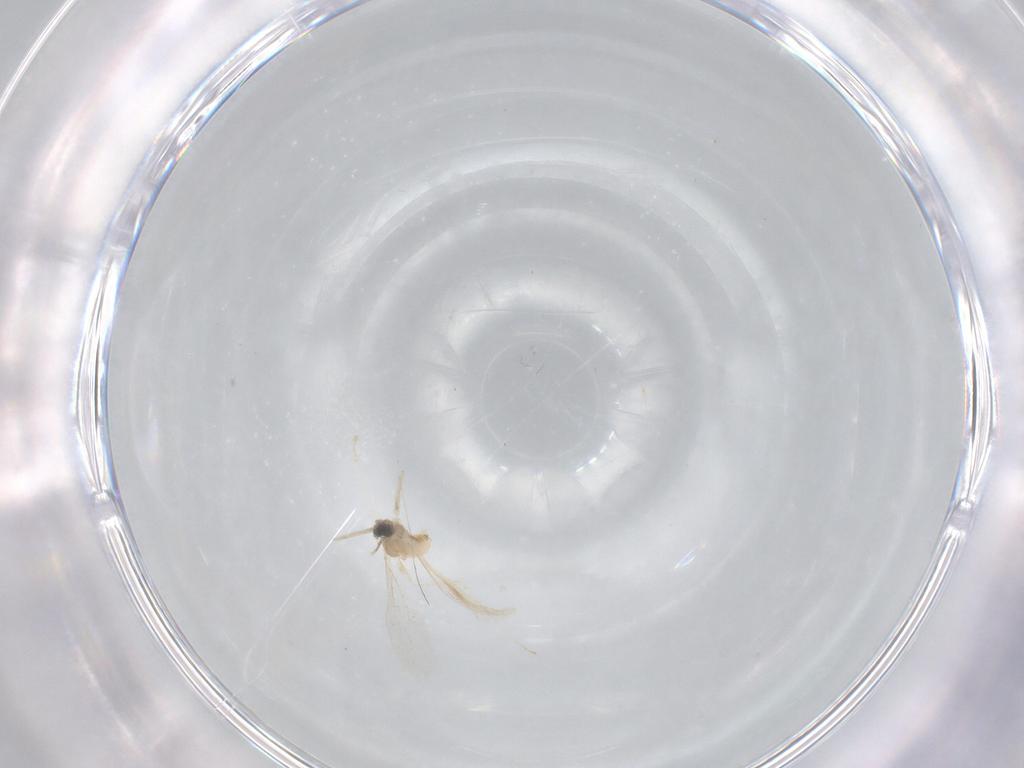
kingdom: Animalia
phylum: Arthropoda
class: Insecta
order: Diptera
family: Cecidomyiidae
